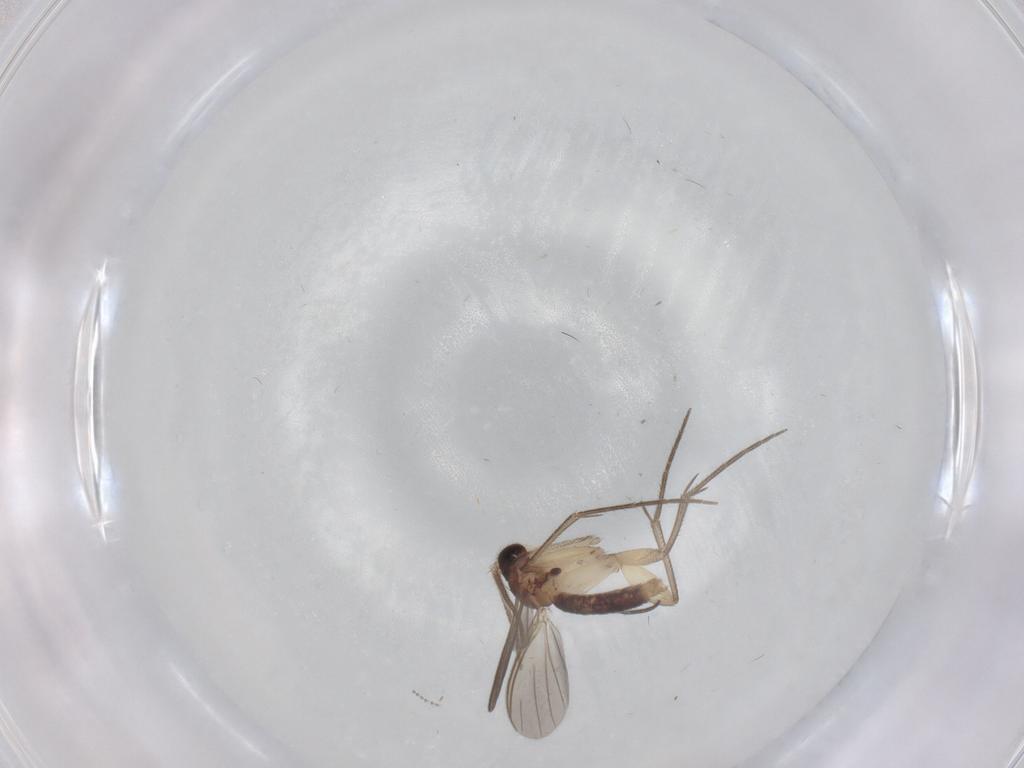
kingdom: Animalia
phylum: Arthropoda
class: Insecta
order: Diptera
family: Mycetophilidae
